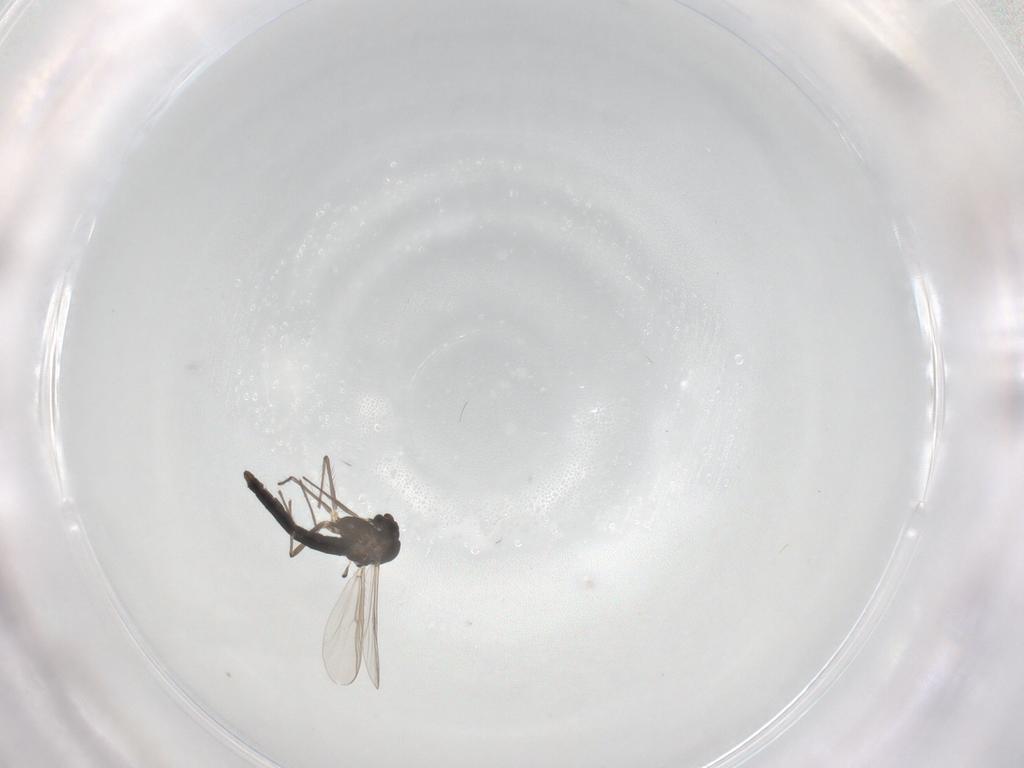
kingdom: Animalia
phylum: Arthropoda
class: Insecta
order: Diptera
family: Chironomidae
